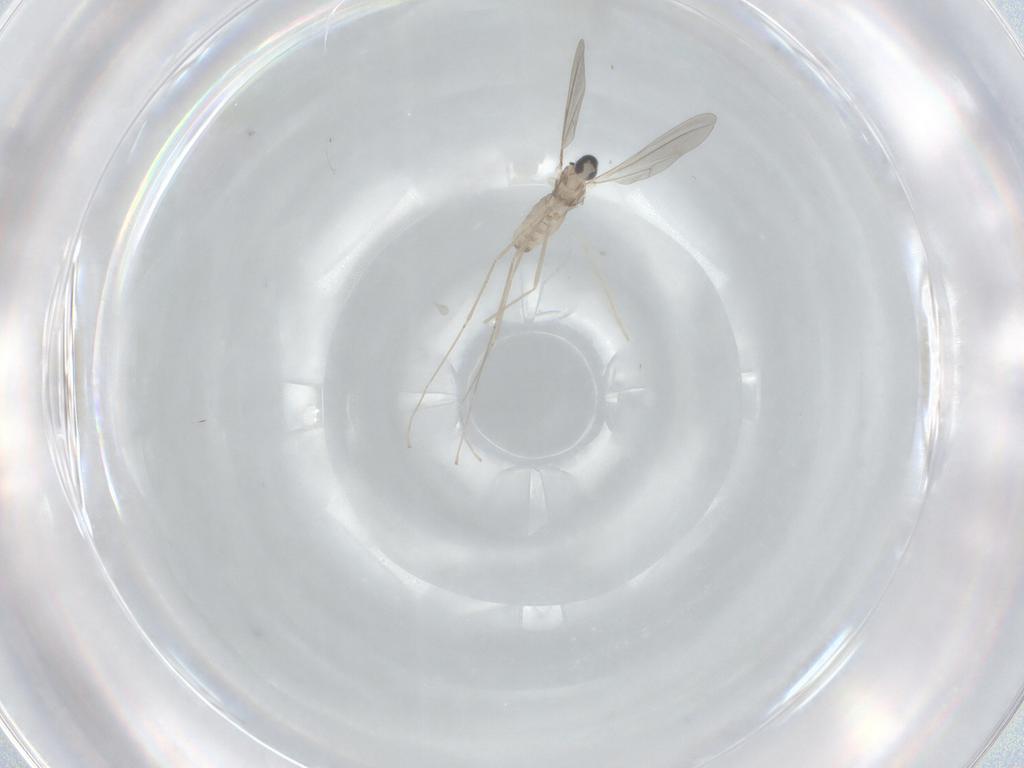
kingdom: Animalia
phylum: Arthropoda
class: Insecta
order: Diptera
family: Cecidomyiidae
